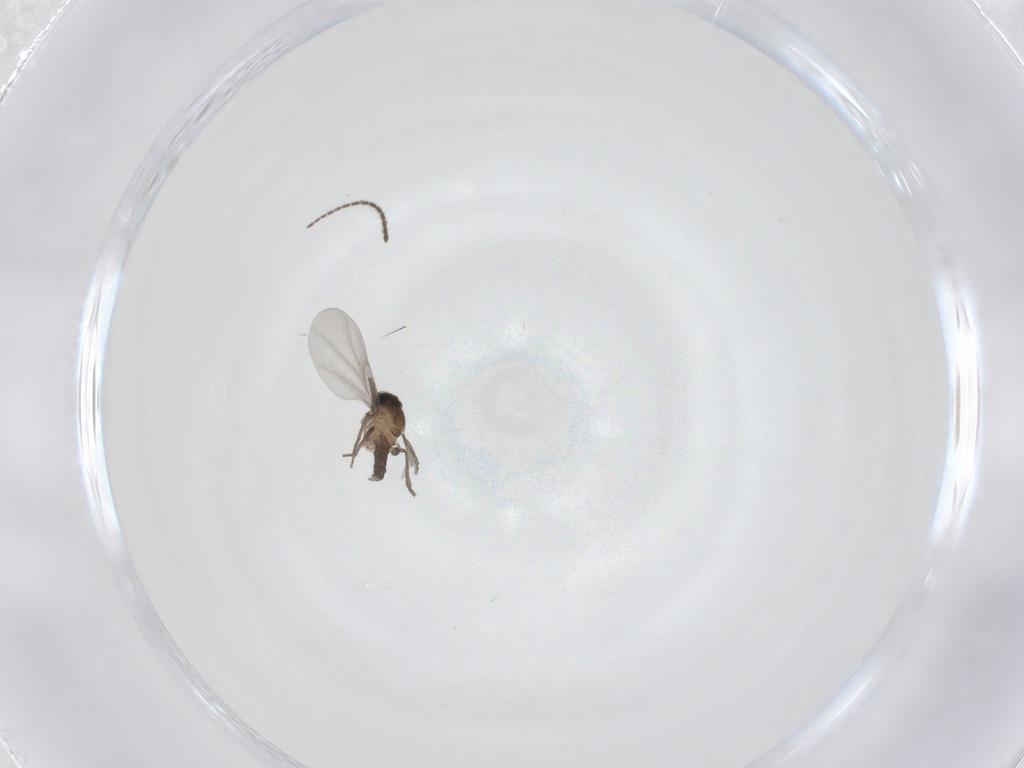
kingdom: Animalia
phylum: Arthropoda
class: Insecta
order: Diptera
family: Phoridae
